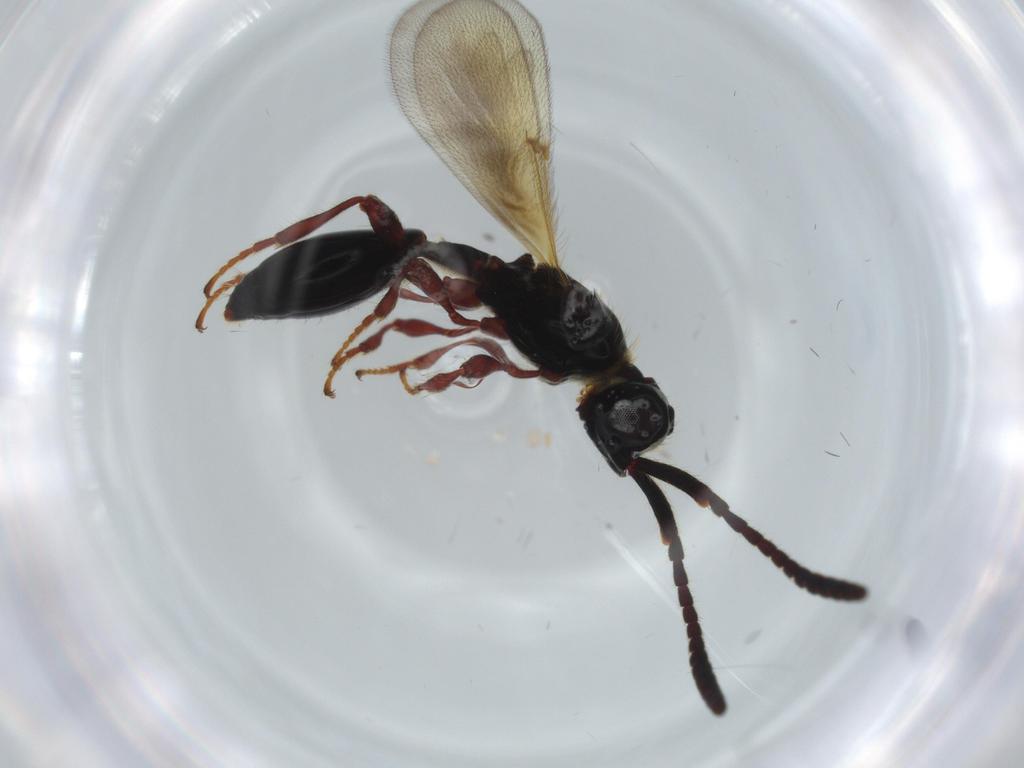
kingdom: Animalia
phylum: Arthropoda
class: Insecta
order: Hymenoptera
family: Diapriidae
